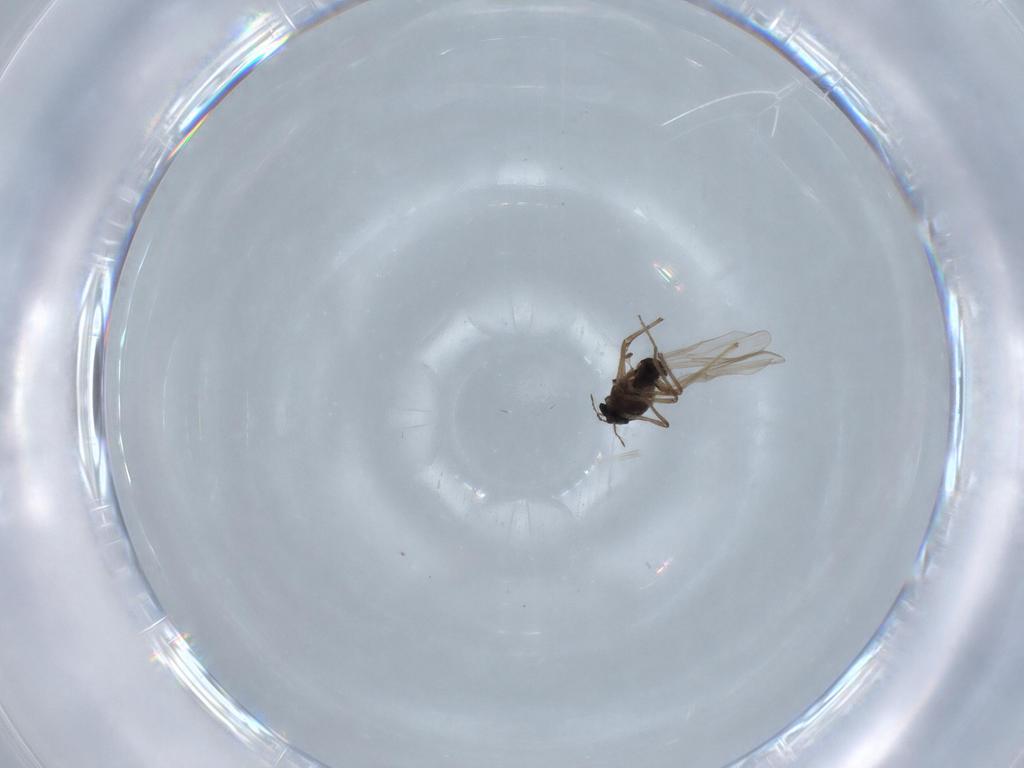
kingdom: Animalia
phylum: Arthropoda
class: Insecta
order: Diptera
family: Chironomidae
